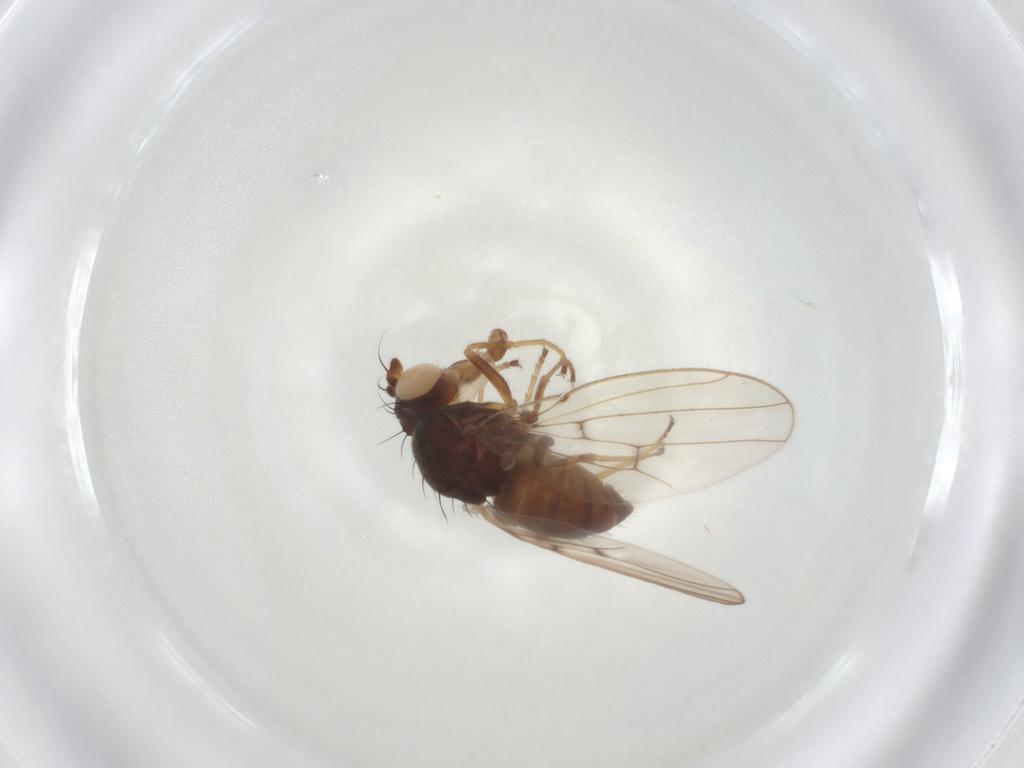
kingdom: Animalia
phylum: Arthropoda
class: Insecta
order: Diptera
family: Ephydridae
